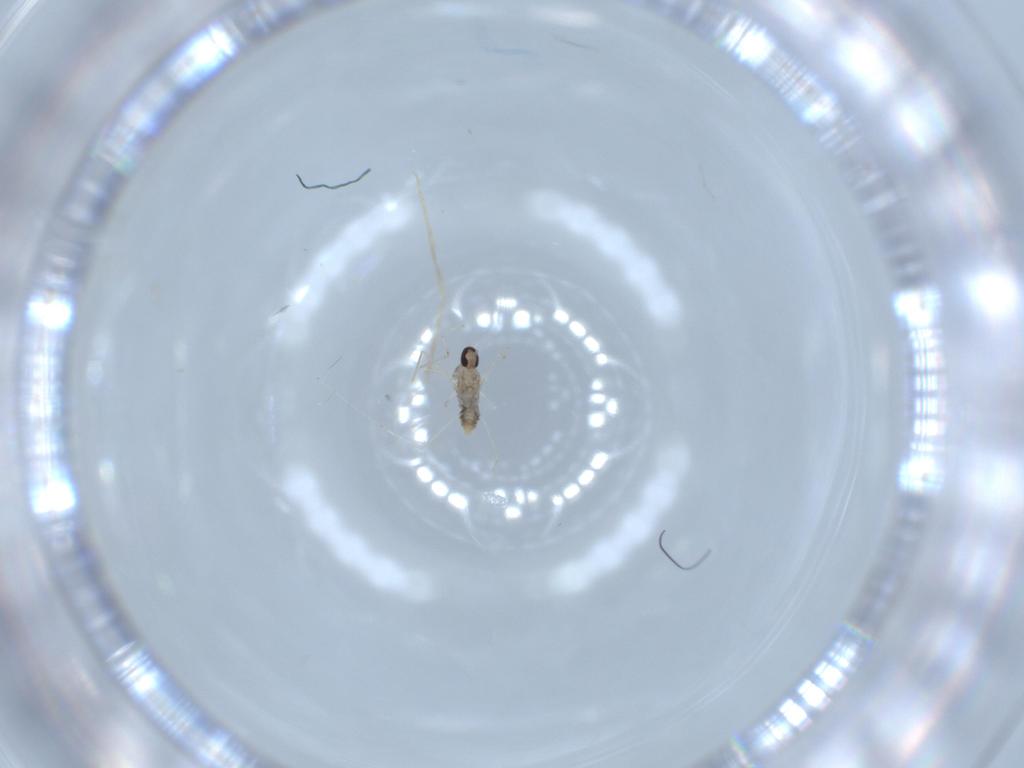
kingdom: Animalia
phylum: Arthropoda
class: Insecta
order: Diptera
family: Cecidomyiidae
